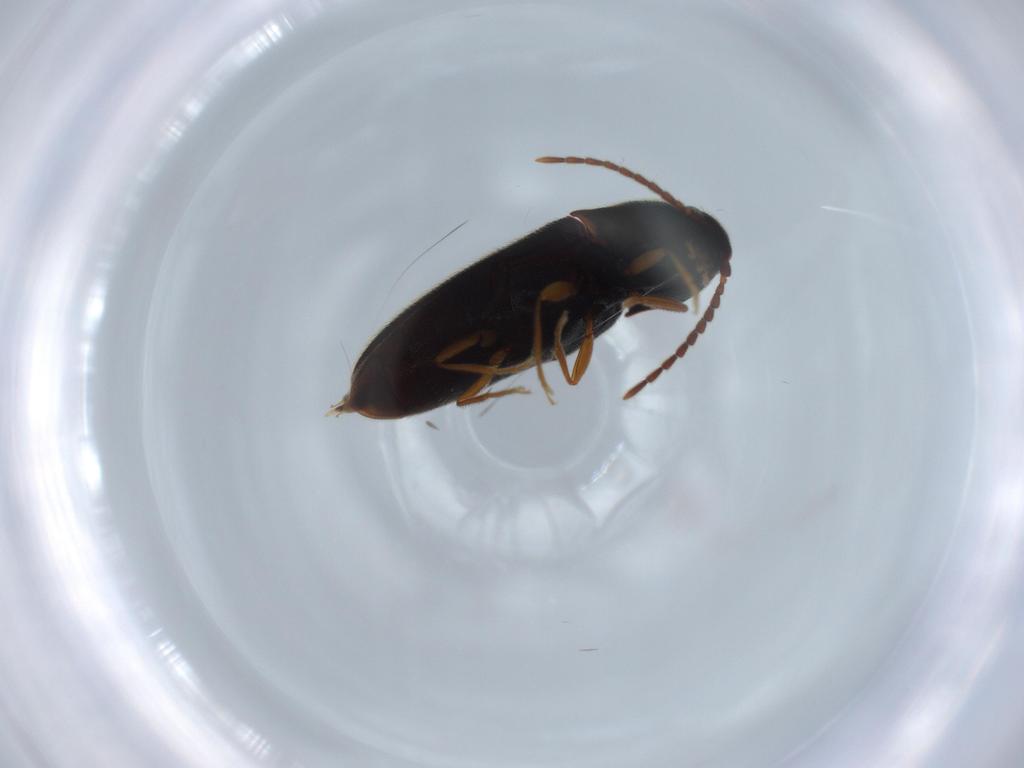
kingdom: Animalia
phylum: Arthropoda
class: Insecta
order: Coleoptera
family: Elateridae
